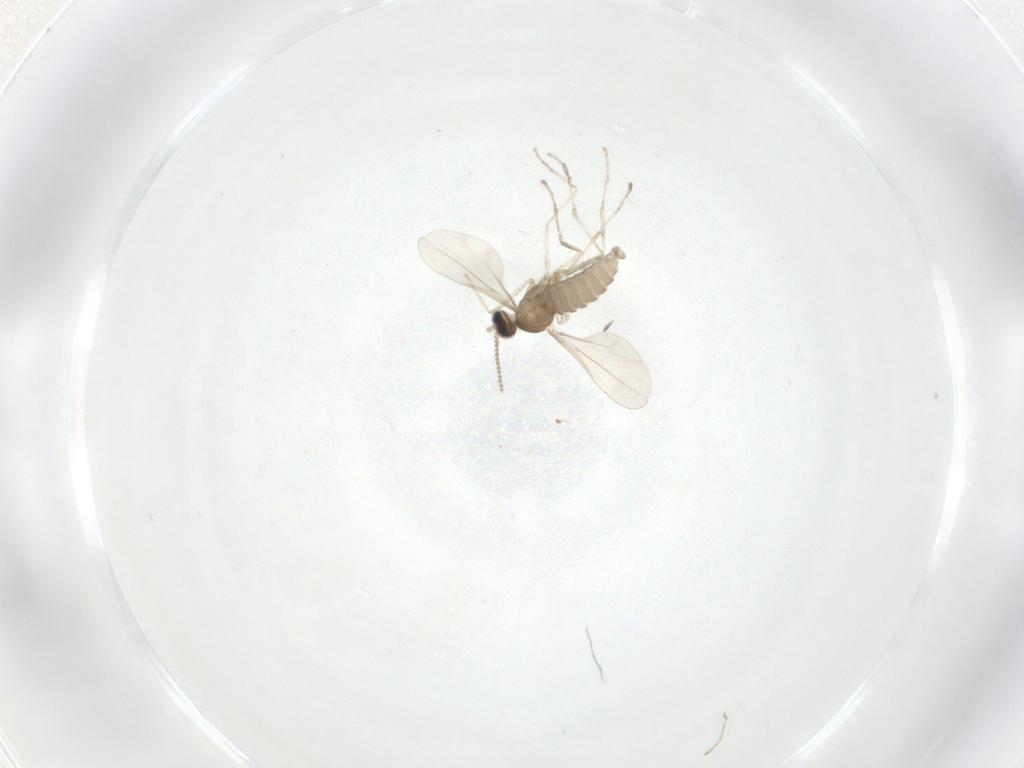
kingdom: Animalia
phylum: Arthropoda
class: Insecta
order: Diptera
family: Cecidomyiidae
